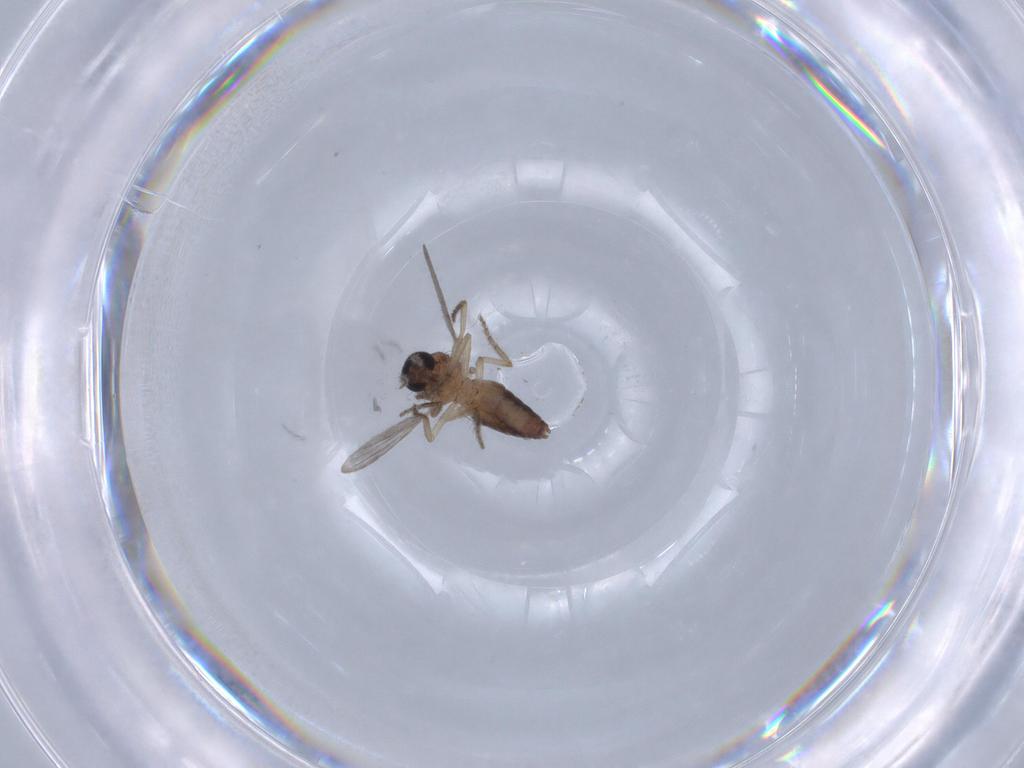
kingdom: Animalia
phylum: Arthropoda
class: Insecta
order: Diptera
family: Ceratopogonidae
